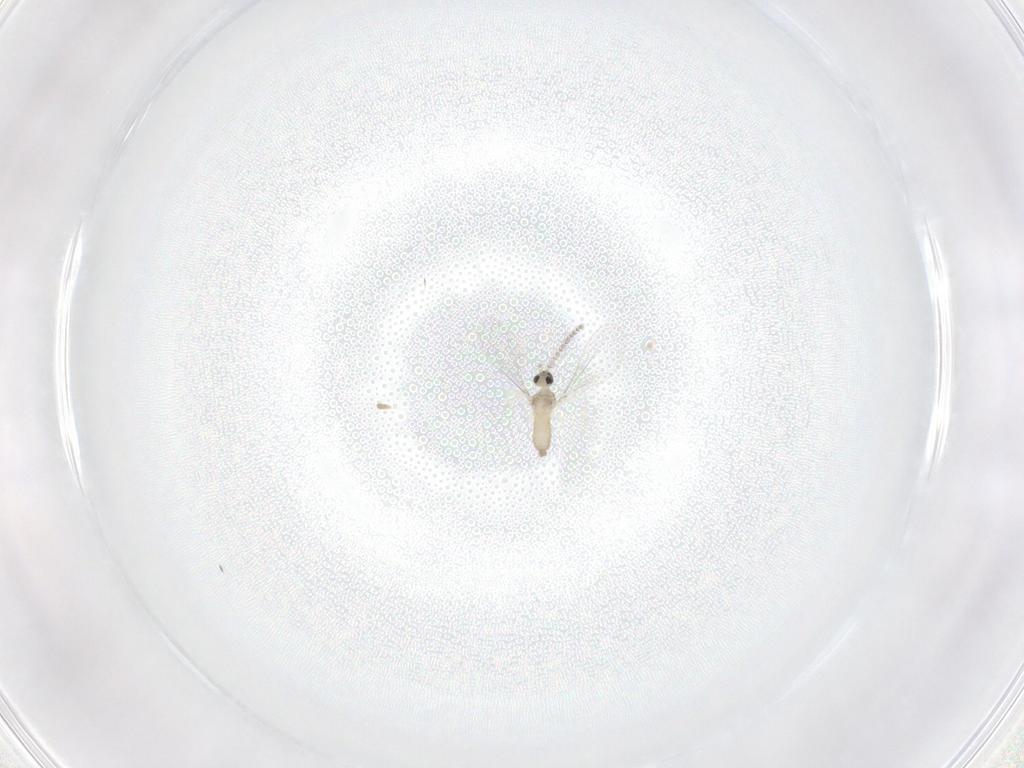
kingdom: Animalia
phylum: Arthropoda
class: Insecta
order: Diptera
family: Cecidomyiidae
